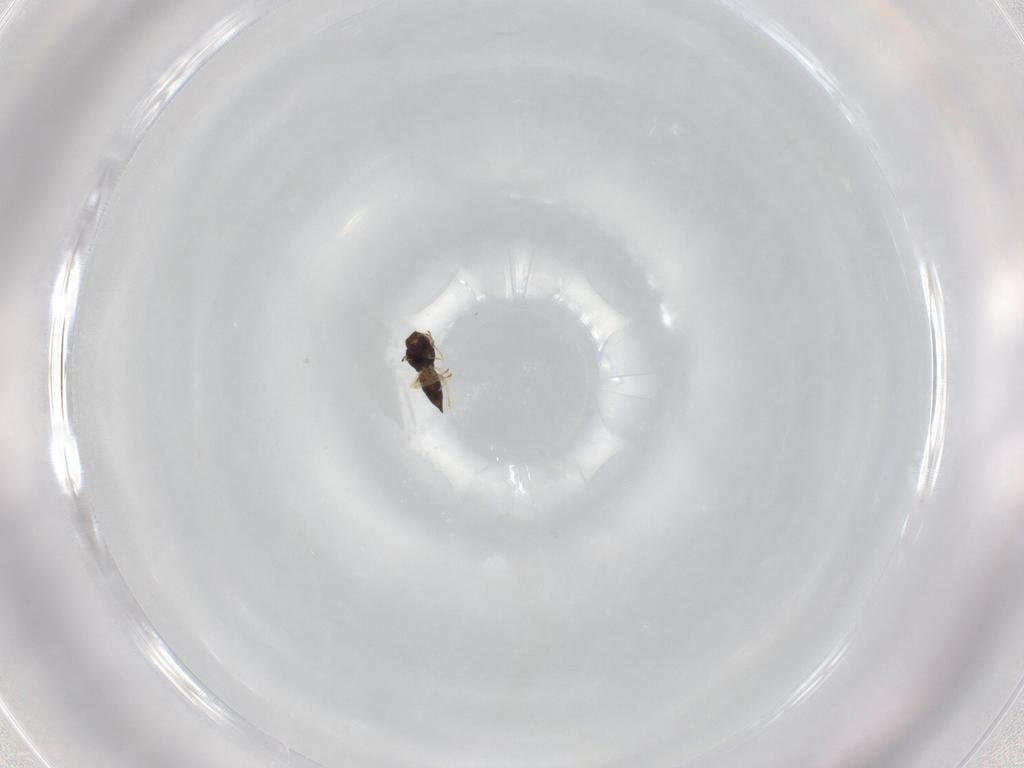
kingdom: Animalia
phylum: Arthropoda
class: Insecta
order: Hymenoptera
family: Eulophidae
